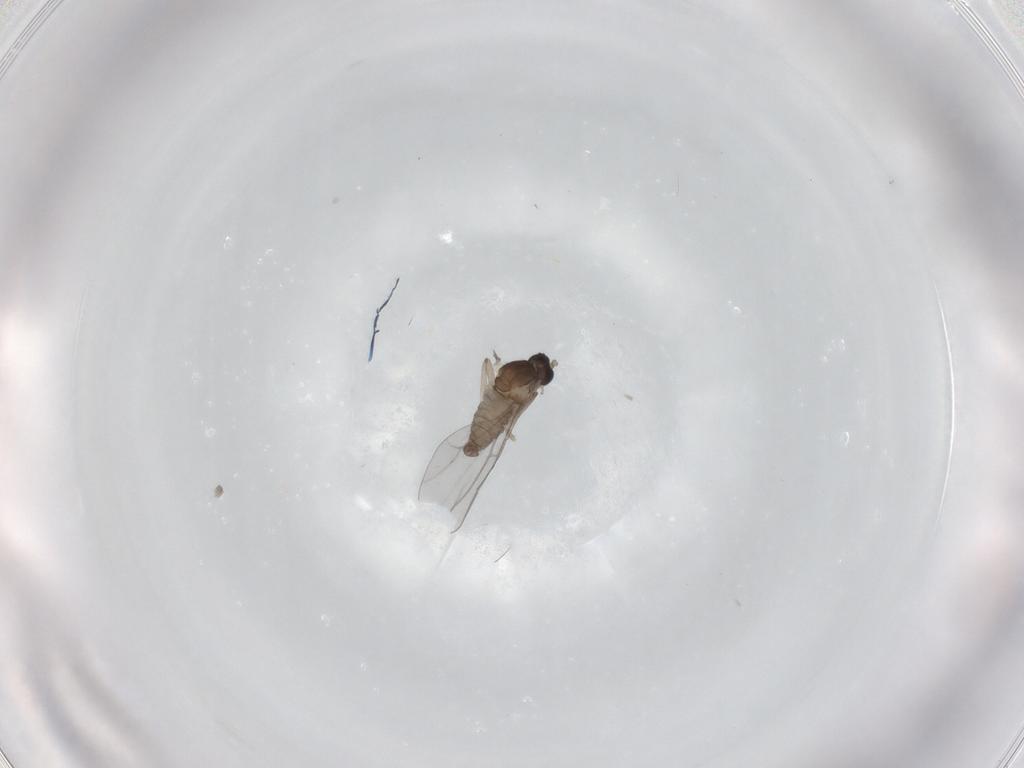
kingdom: Animalia
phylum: Arthropoda
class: Insecta
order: Diptera
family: Cecidomyiidae
